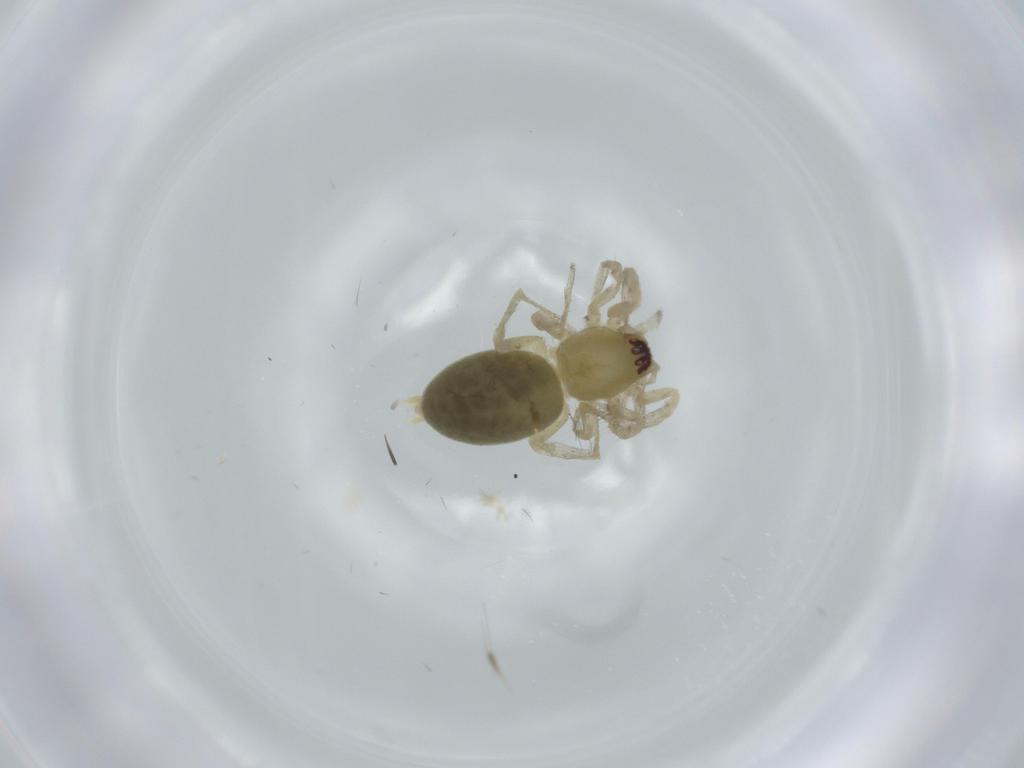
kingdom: Animalia
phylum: Arthropoda
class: Arachnida
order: Araneae
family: Anyphaenidae
